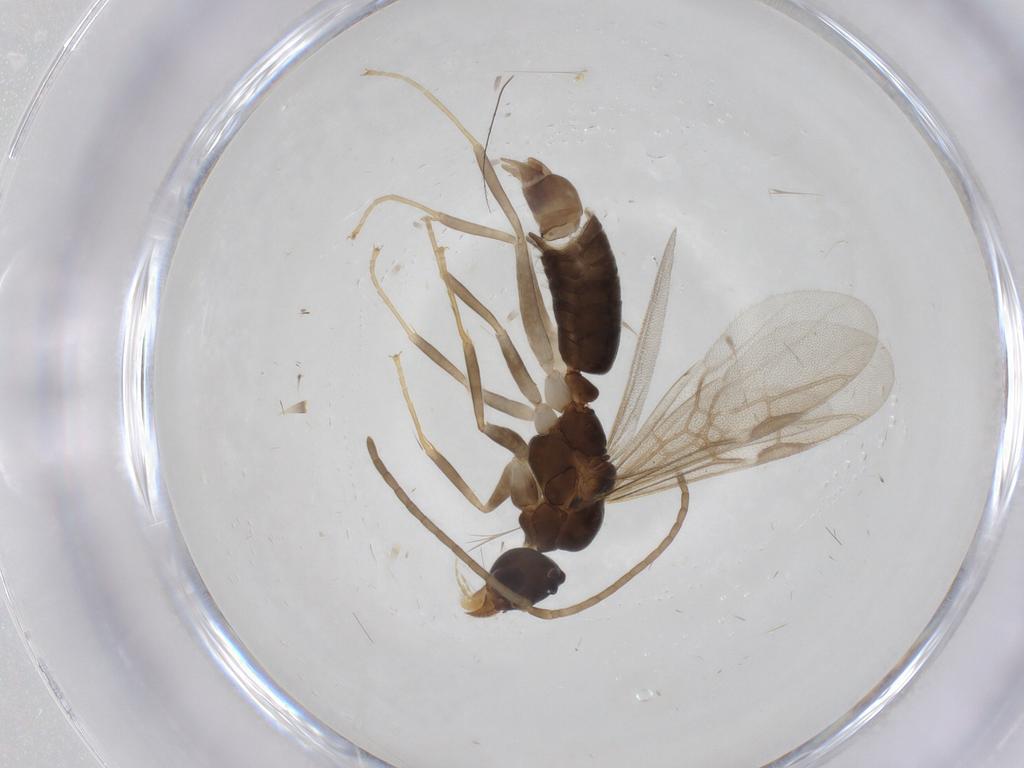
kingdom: Animalia
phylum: Arthropoda
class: Insecta
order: Hymenoptera
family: Formicidae
